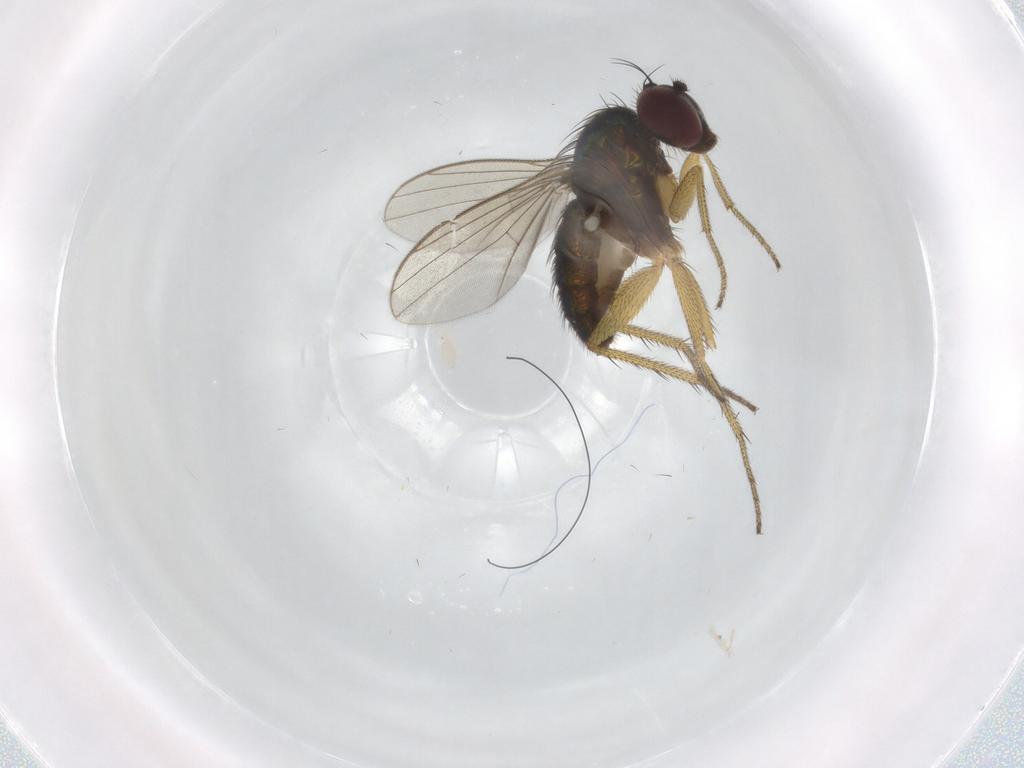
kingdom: Animalia
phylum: Arthropoda
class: Insecta
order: Diptera
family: Dolichopodidae
